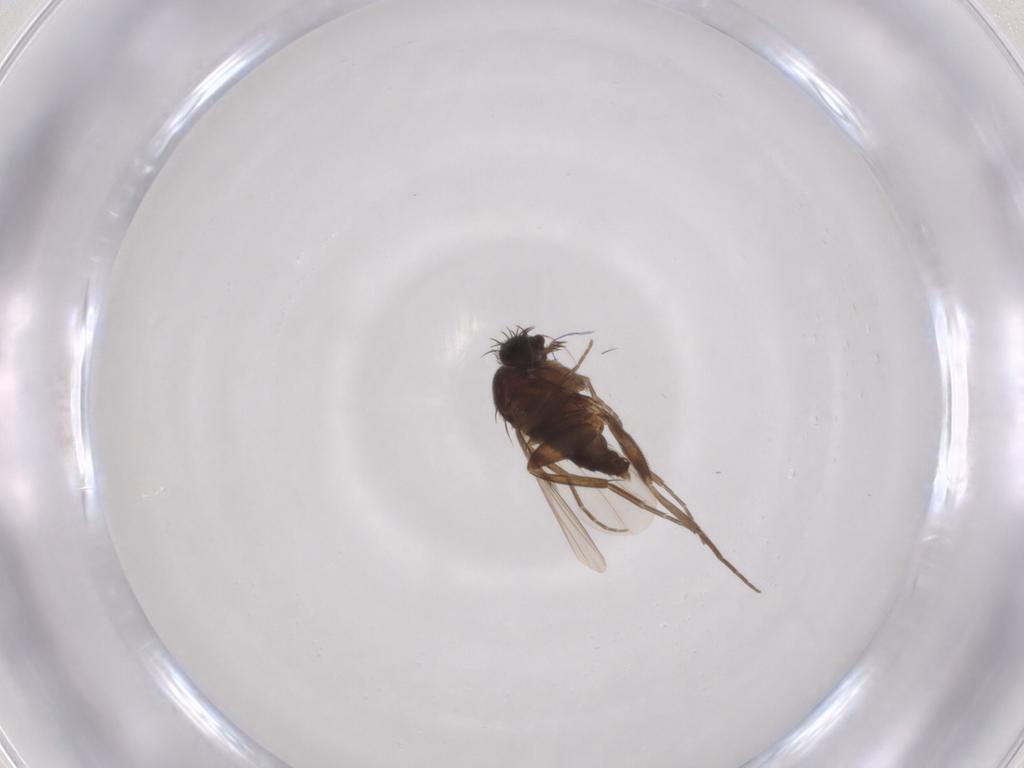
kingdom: Animalia
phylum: Arthropoda
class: Insecta
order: Diptera
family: Phoridae
